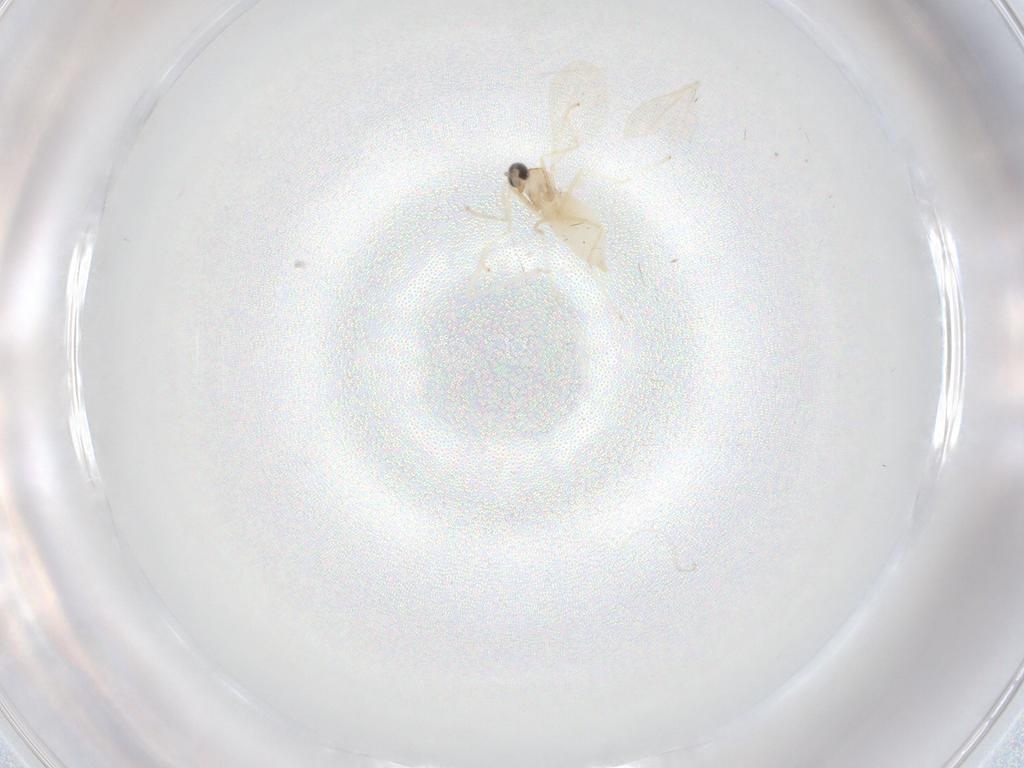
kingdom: Animalia
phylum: Arthropoda
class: Insecta
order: Diptera
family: Cecidomyiidae
